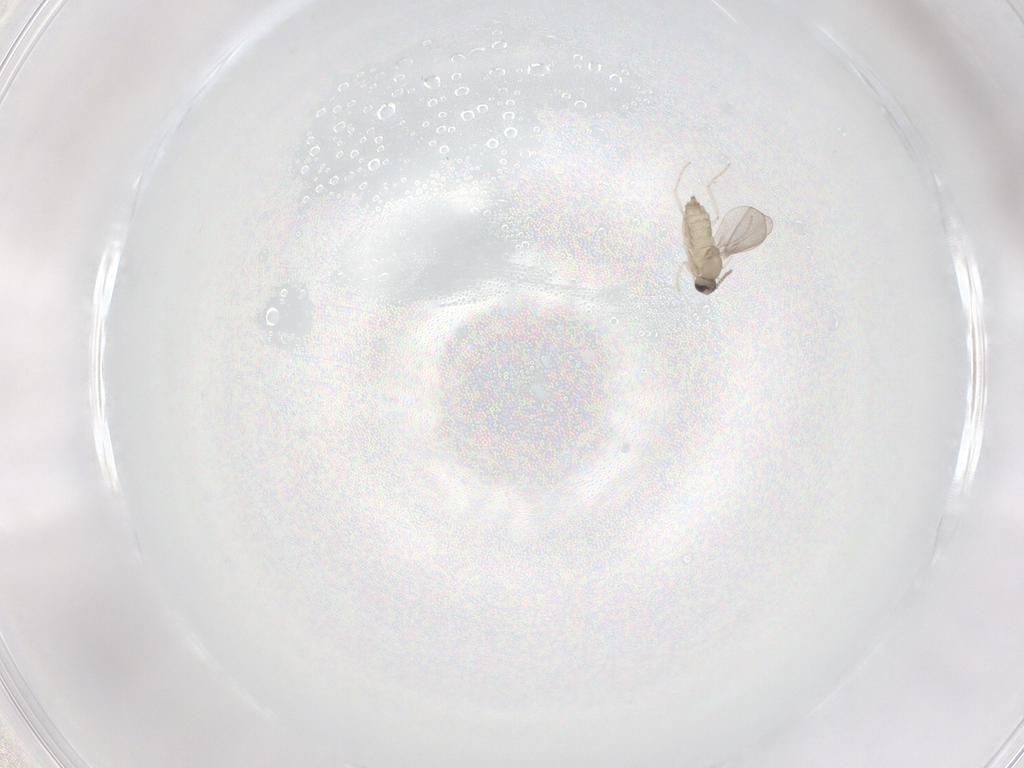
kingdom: Animalia
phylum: Arthropoda
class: Insecta
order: Diptera
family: Cecidomyiidae
